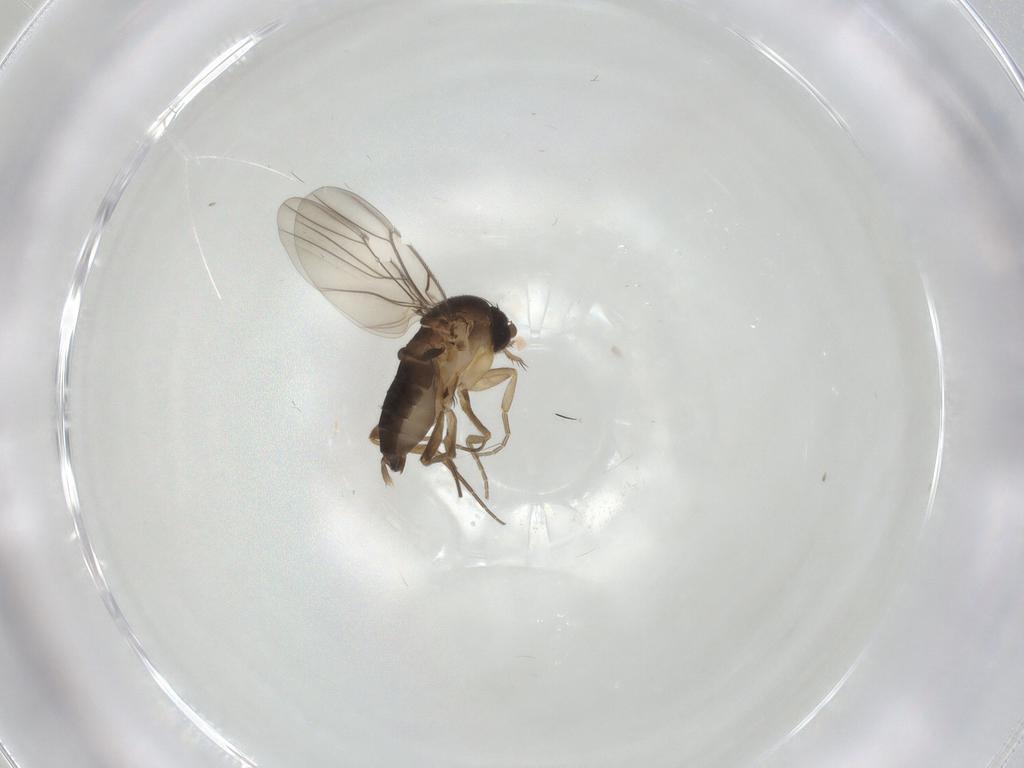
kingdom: Animalia
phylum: Arthropoda
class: Insecta
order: Diptera
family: Phoridae
